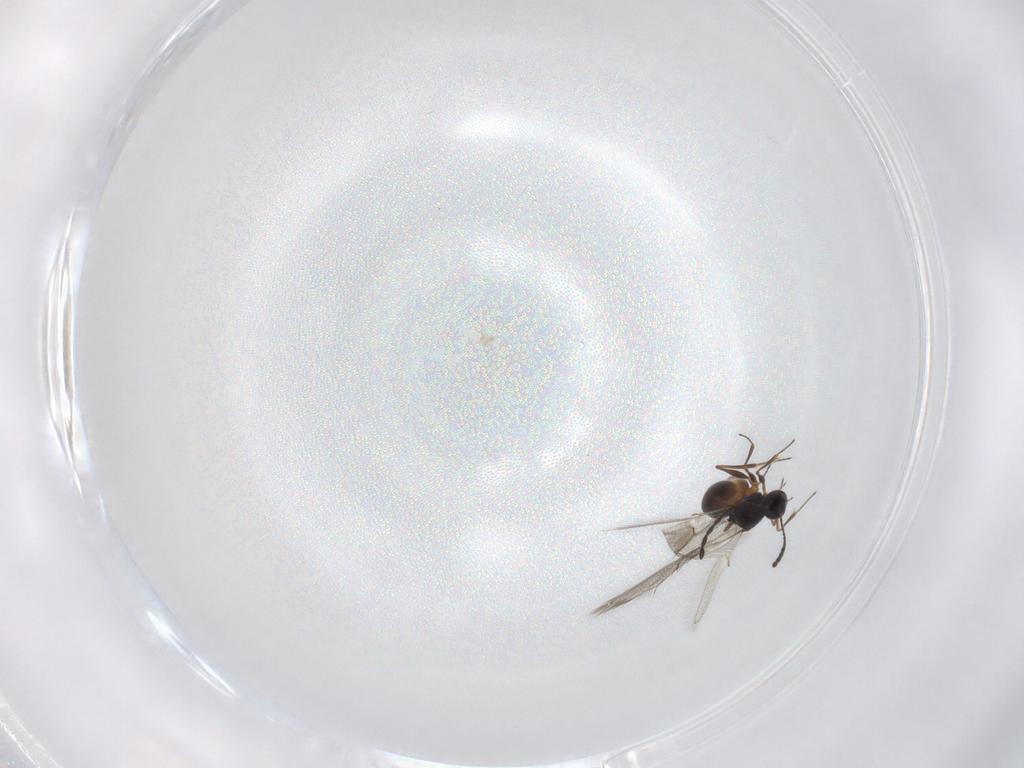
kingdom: Animalia
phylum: Arthropoda
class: Insecta
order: Hymenoptera
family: Figitidae
